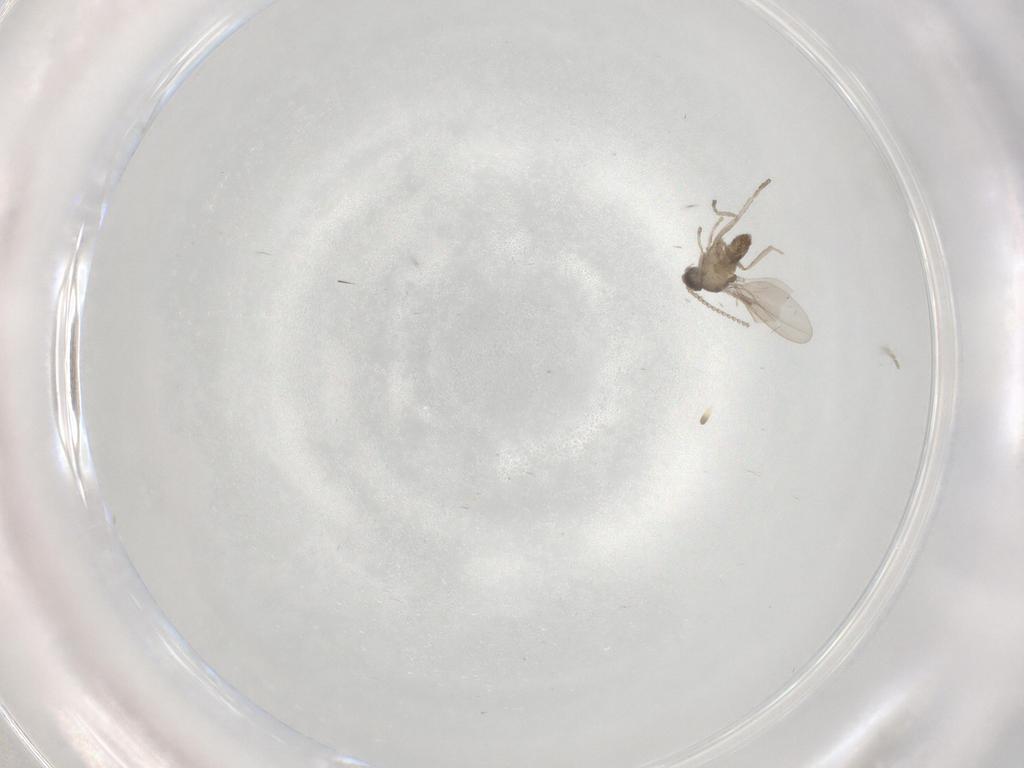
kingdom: Animalia
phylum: Arthropoda
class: Insecta
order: Diptera
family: Cecidomyiidae
